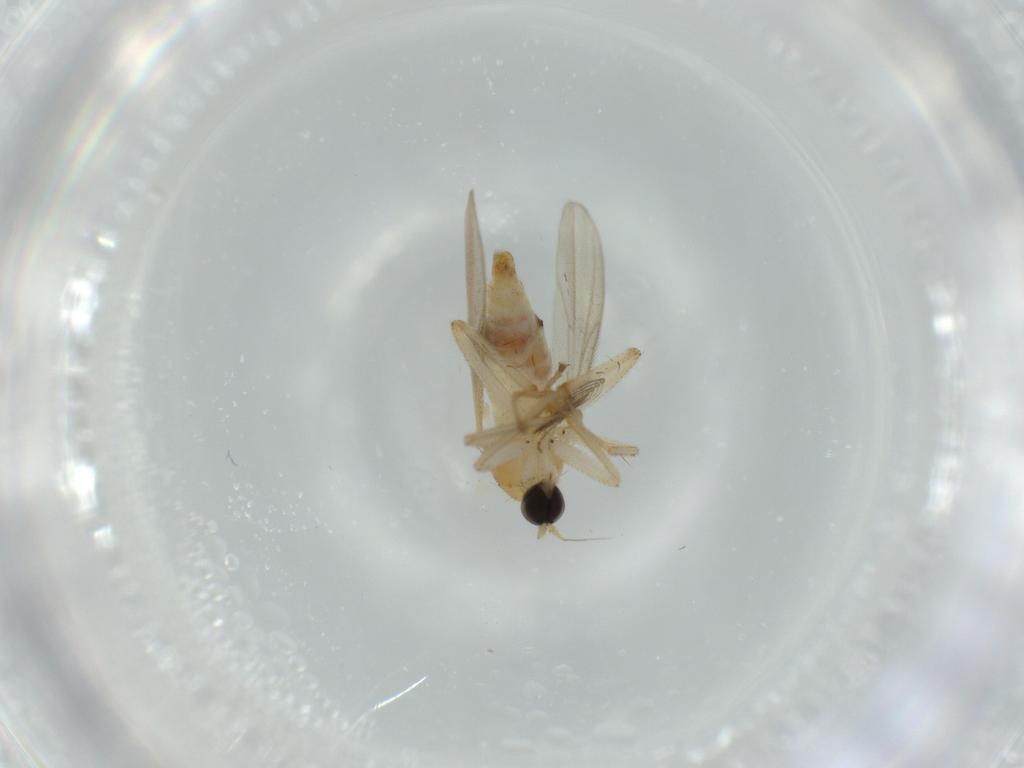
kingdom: Animalia
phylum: Arthropoda
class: Insecta
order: Diptera
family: Hybotidae
